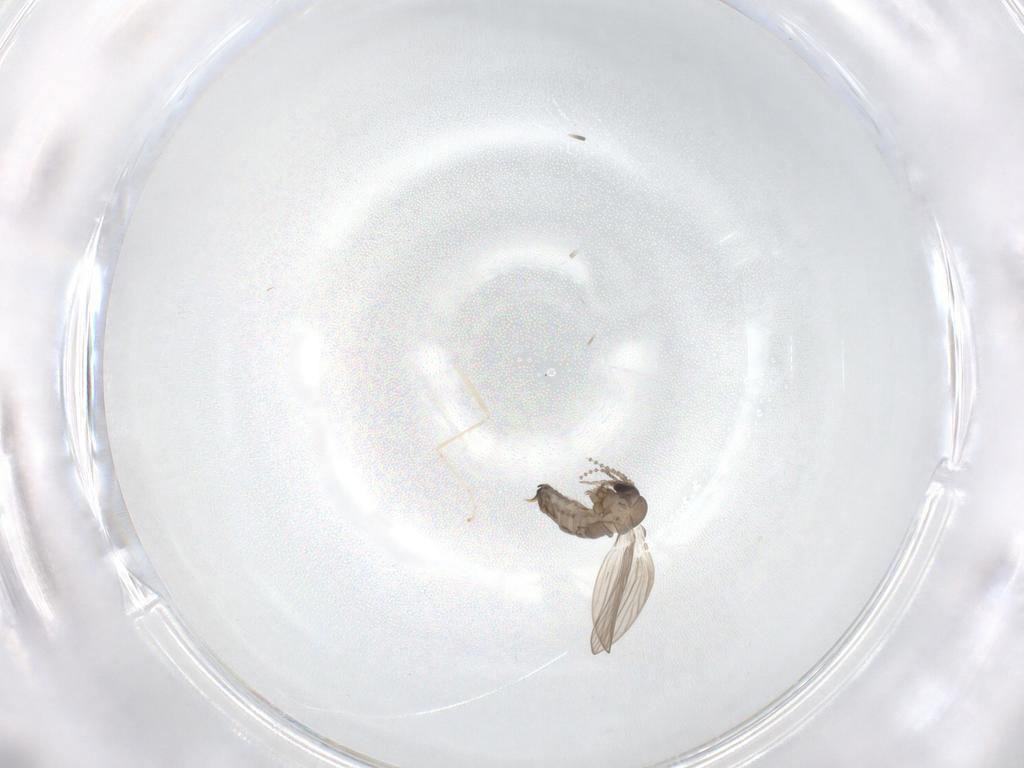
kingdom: Animalia
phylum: Arthropoda
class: Insecta
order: Diptera
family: Psychodidae
